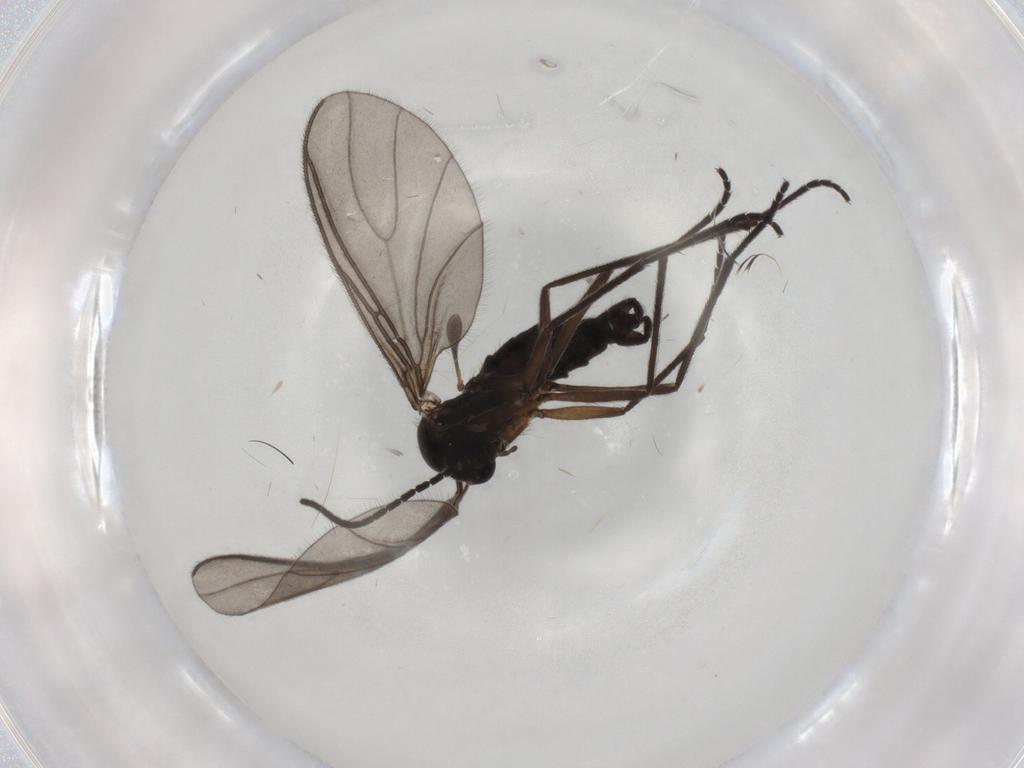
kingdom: Animalia
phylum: Arthropoda
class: Insecta
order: Diptera
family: Sciaridae
